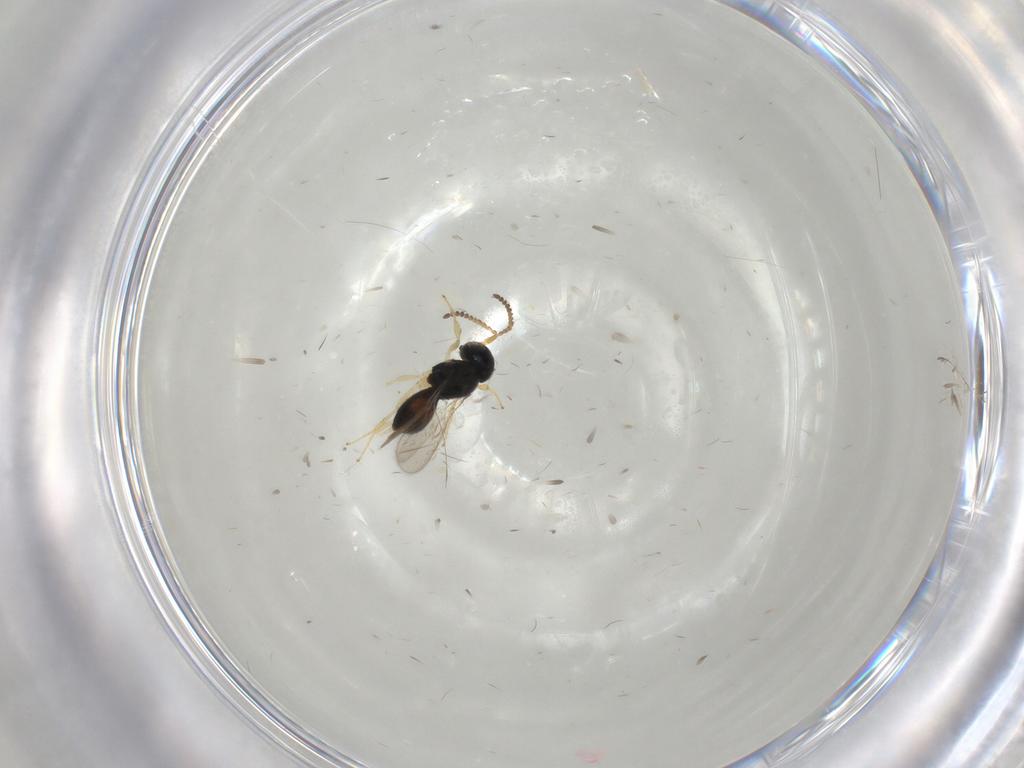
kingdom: Animalia
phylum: Arthropoda
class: Insecta
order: Hymenoptera
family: Scelionidae
